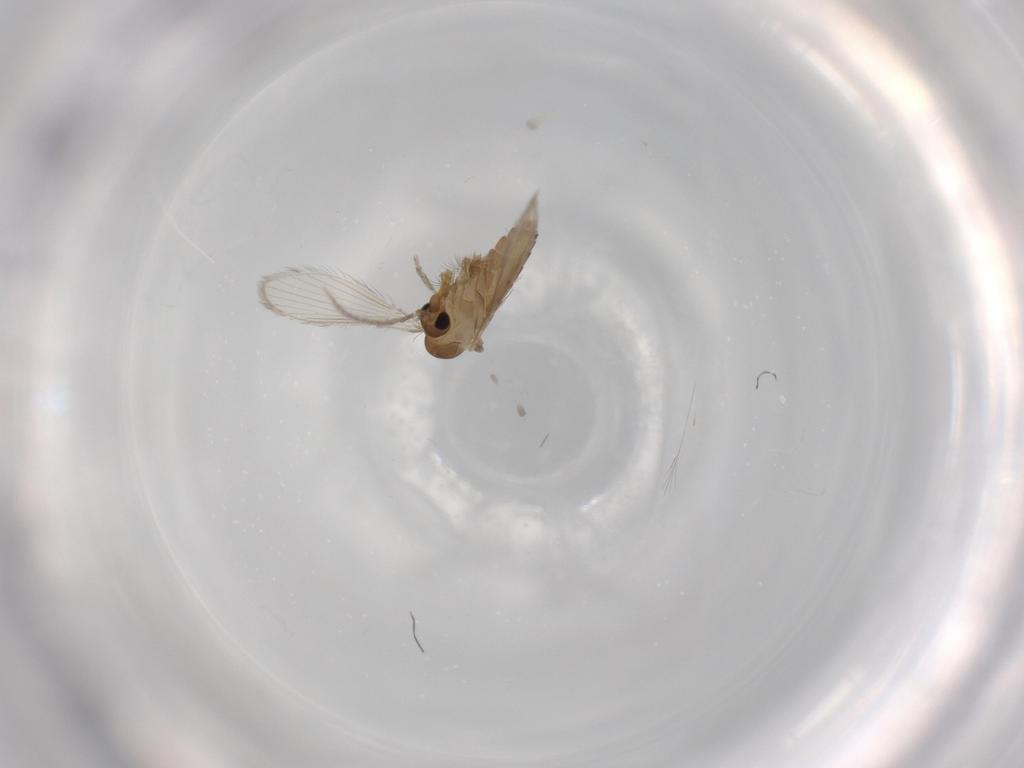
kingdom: Animalia
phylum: Arthropoda
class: Insecta
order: Diptera
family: Psychodidae
